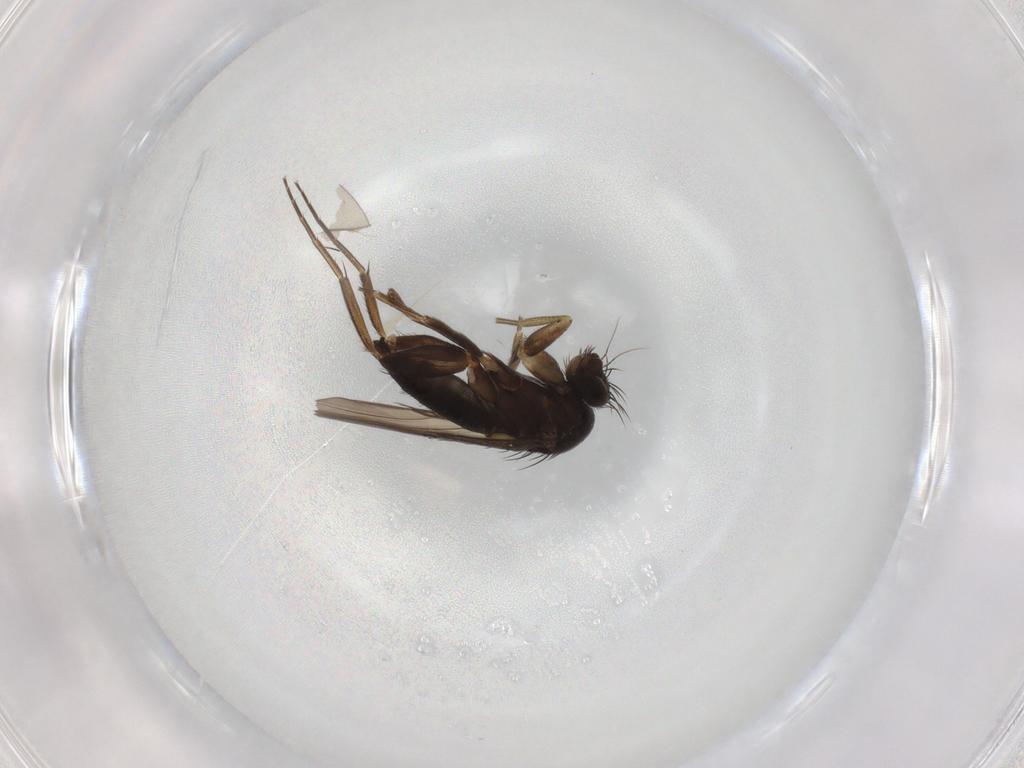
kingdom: Animalia
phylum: Arthropoda
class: Insecta
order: Diptera
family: Phoridae
